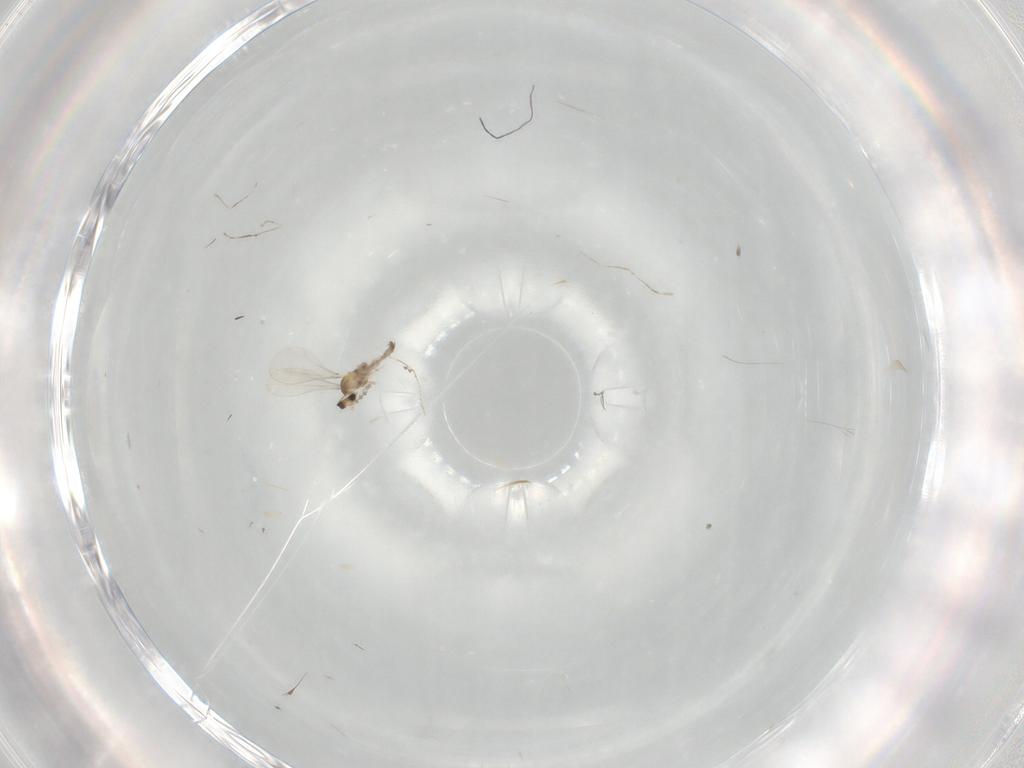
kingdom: Animalia
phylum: Arthropoda
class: Insecta
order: Diptera
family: Cecidomyiidae
